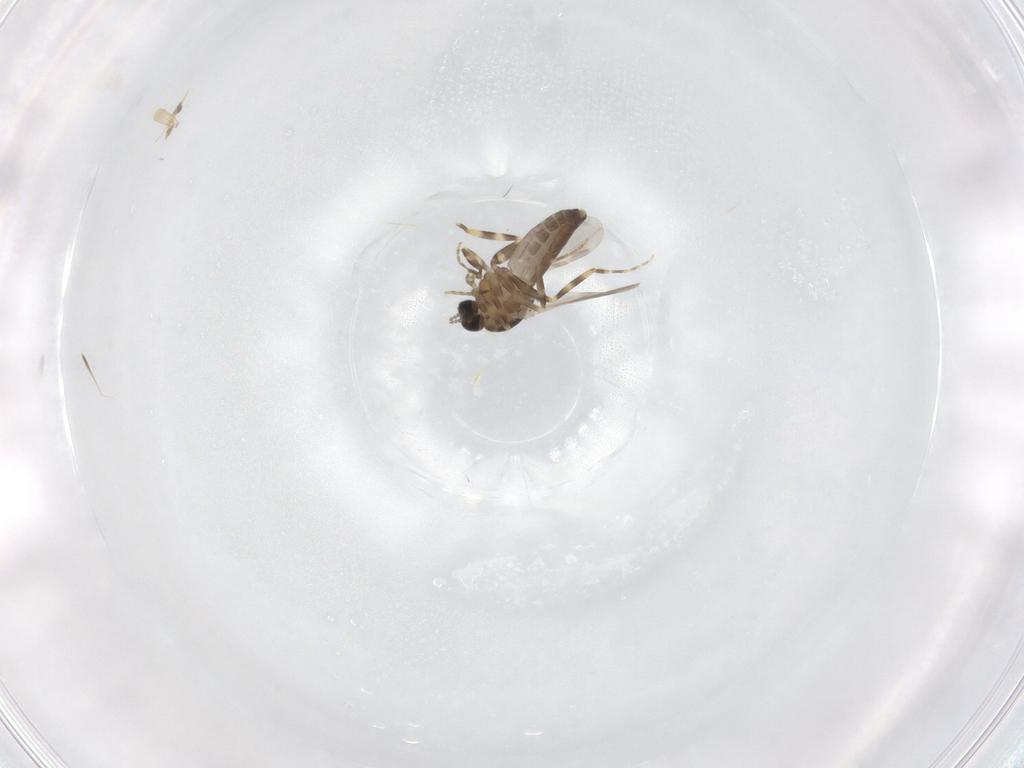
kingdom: Animalia
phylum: Arthropoda
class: Insecta
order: Diptera
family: Ceratopogonidae
